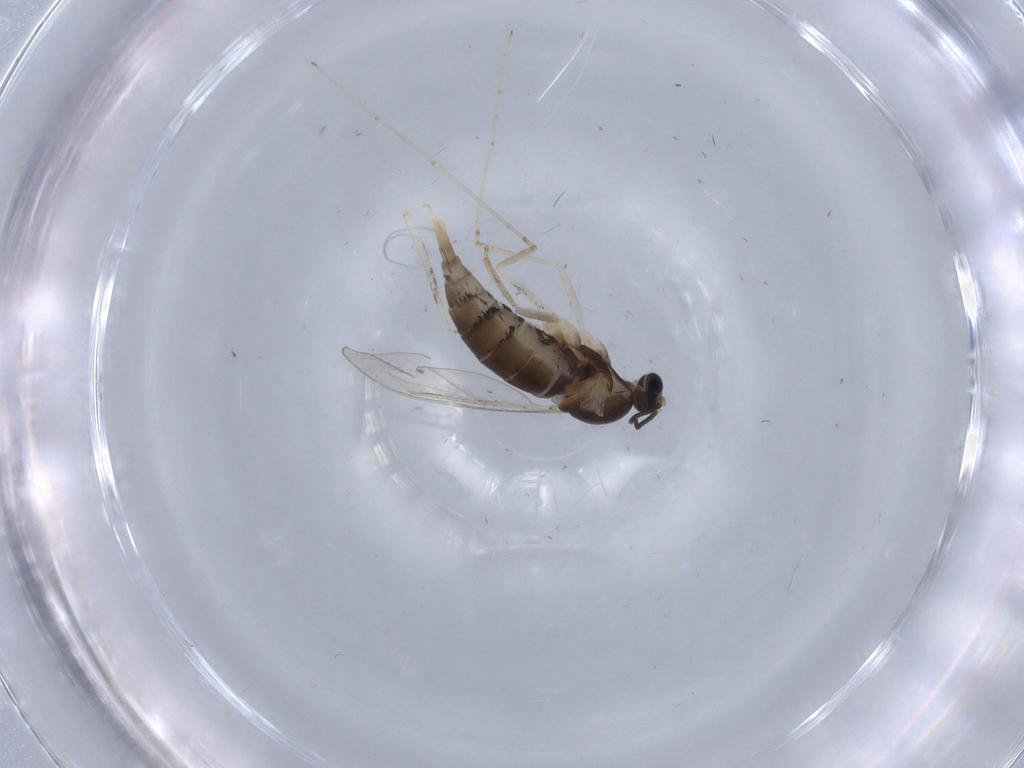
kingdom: Animalia
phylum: Arthropoda
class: Insecta
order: Diptera
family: Cecidomyiidae
